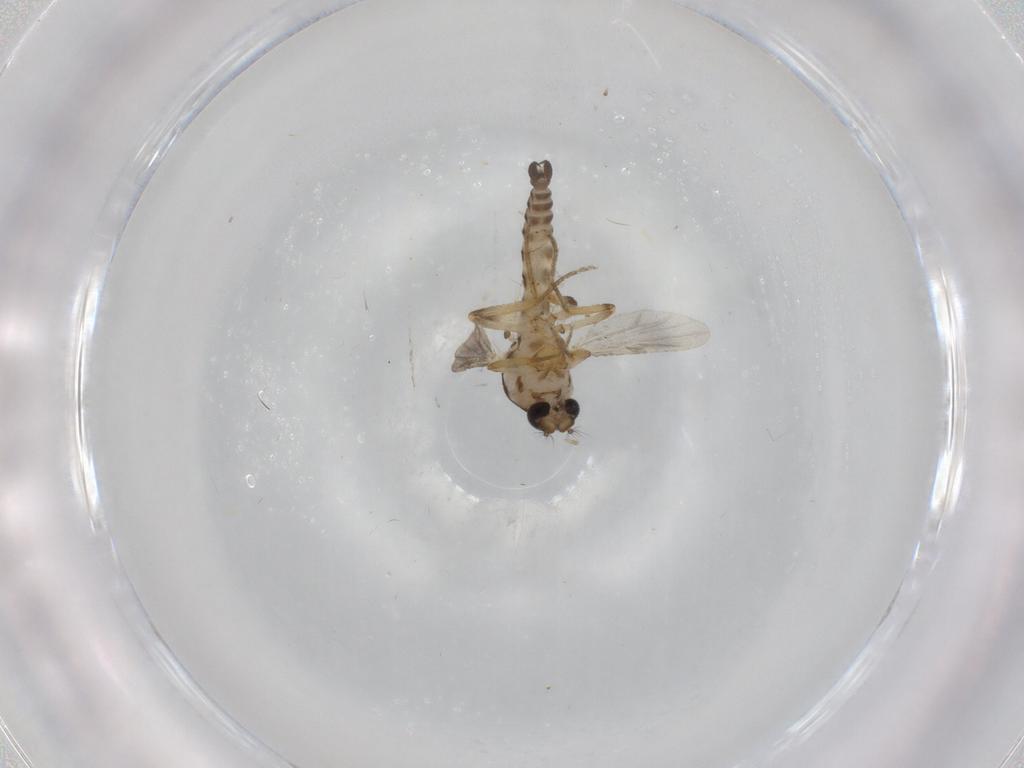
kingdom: Animalia
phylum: Arthropoda
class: Insecta
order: Diptera
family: Ceratopogonidae
